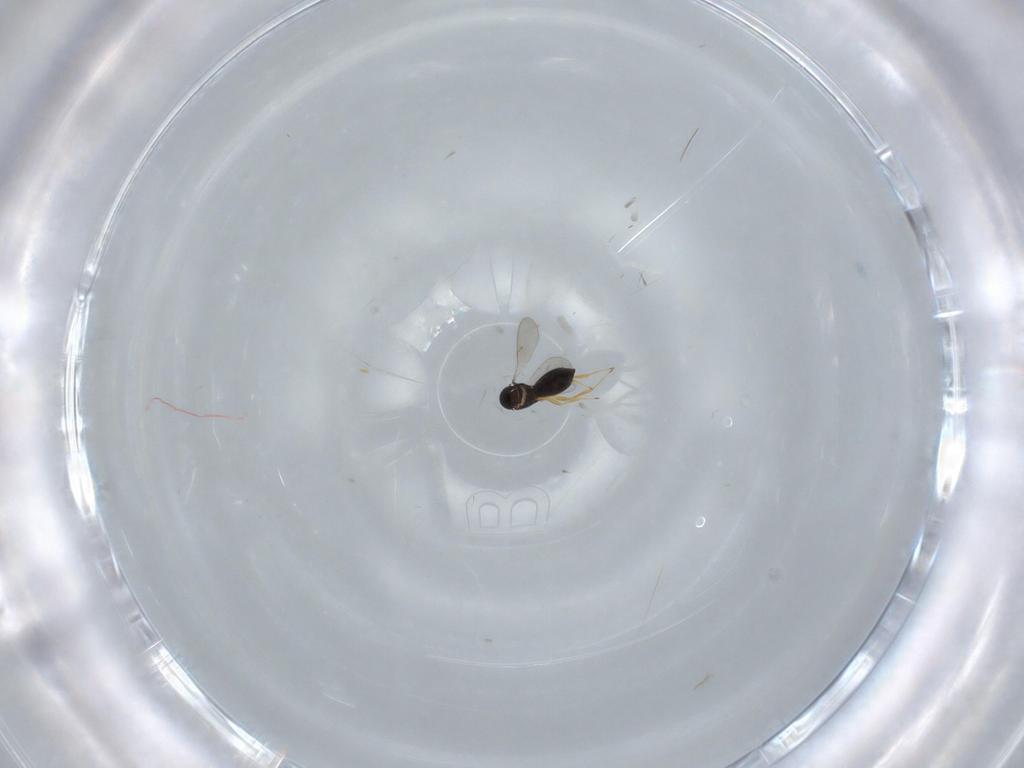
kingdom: Animalia
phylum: Arthropoda
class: Insecta
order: Hymenoptera
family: Scelionidae
